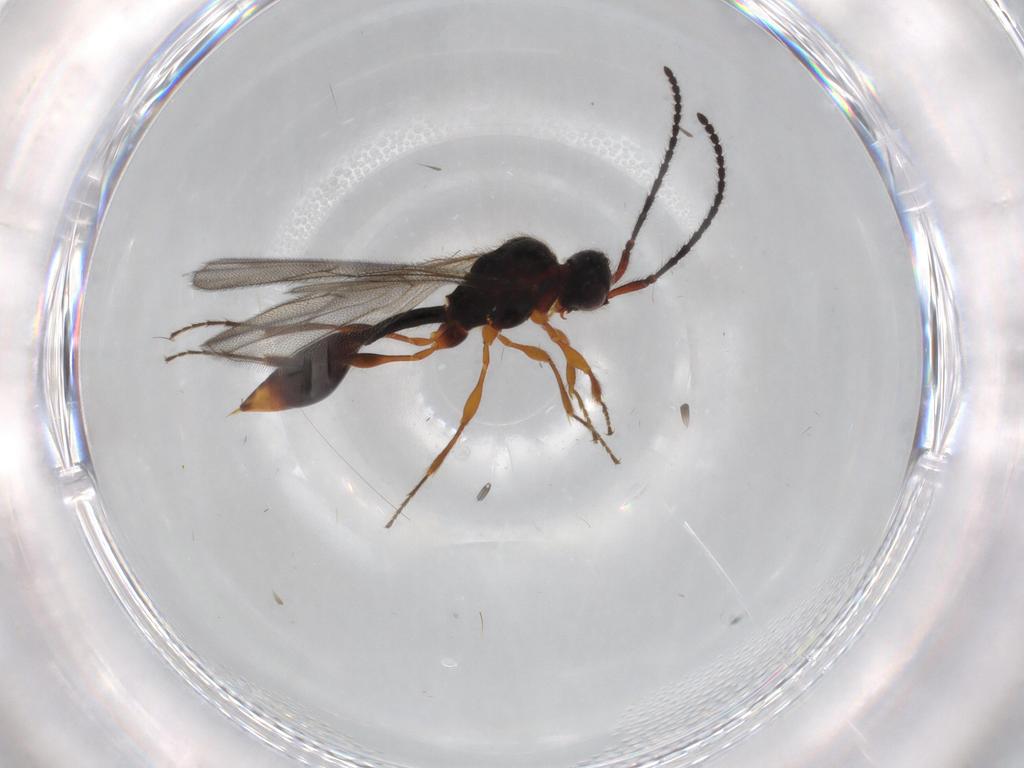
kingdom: Animalia
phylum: Arthropoda
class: Insecta
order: Hymenoptera
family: Diapriidae
